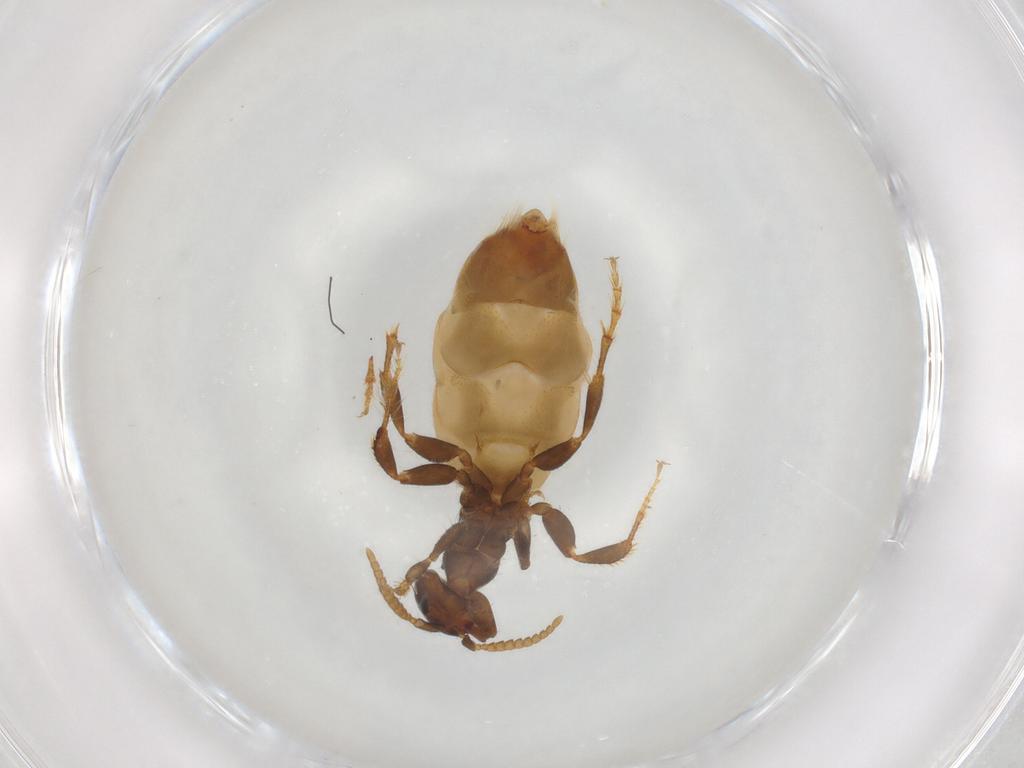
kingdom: Animalia
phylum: Arthropoda
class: Insecta
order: Hymenoptera
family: Thynnidae
